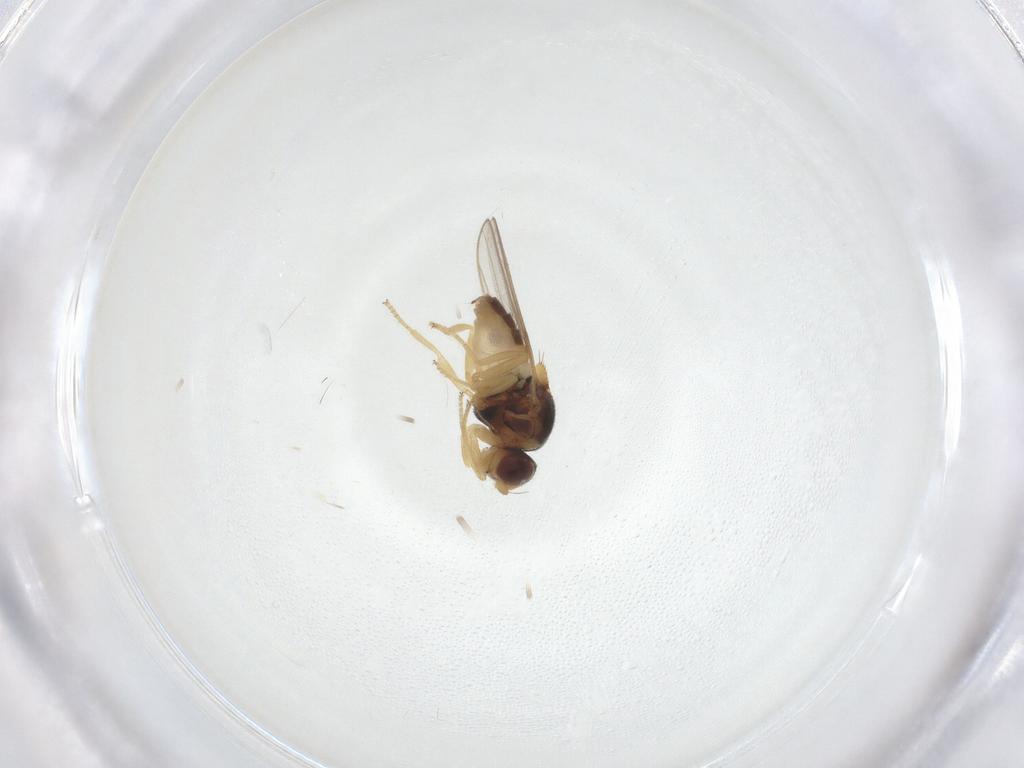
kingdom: Animalia
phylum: Arthropoda
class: Insecta
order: Diptera
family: Chloropidae
